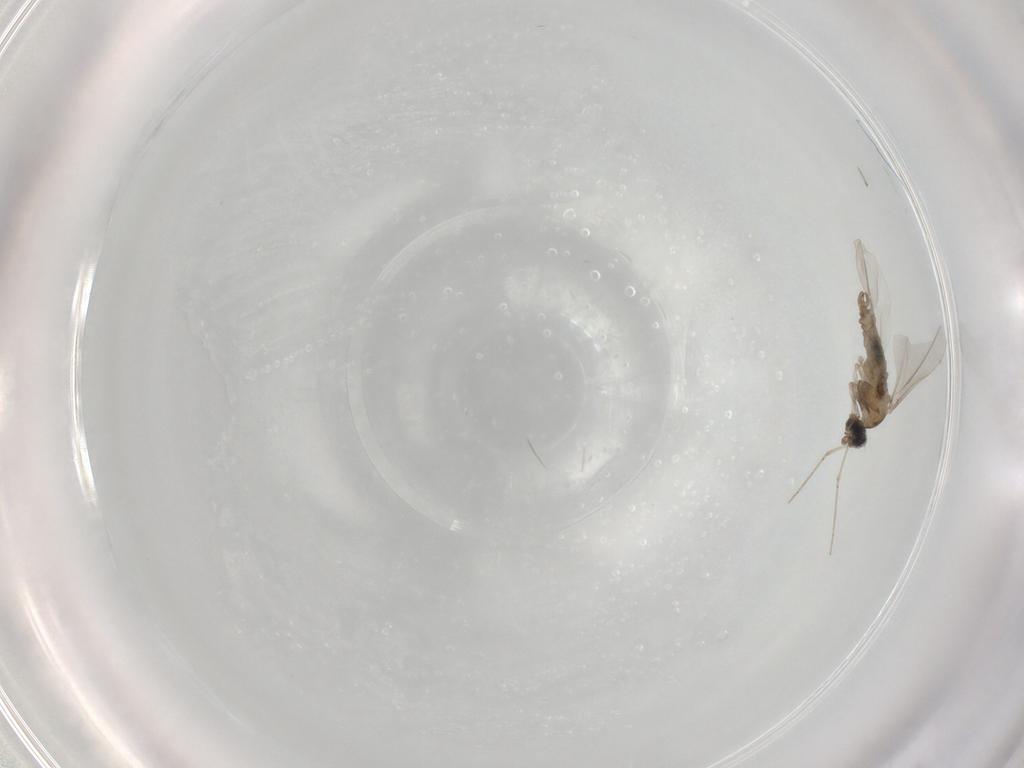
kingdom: Animalia
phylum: Arthropoda
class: Insecta
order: Diptera
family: Cecidomyiidae
